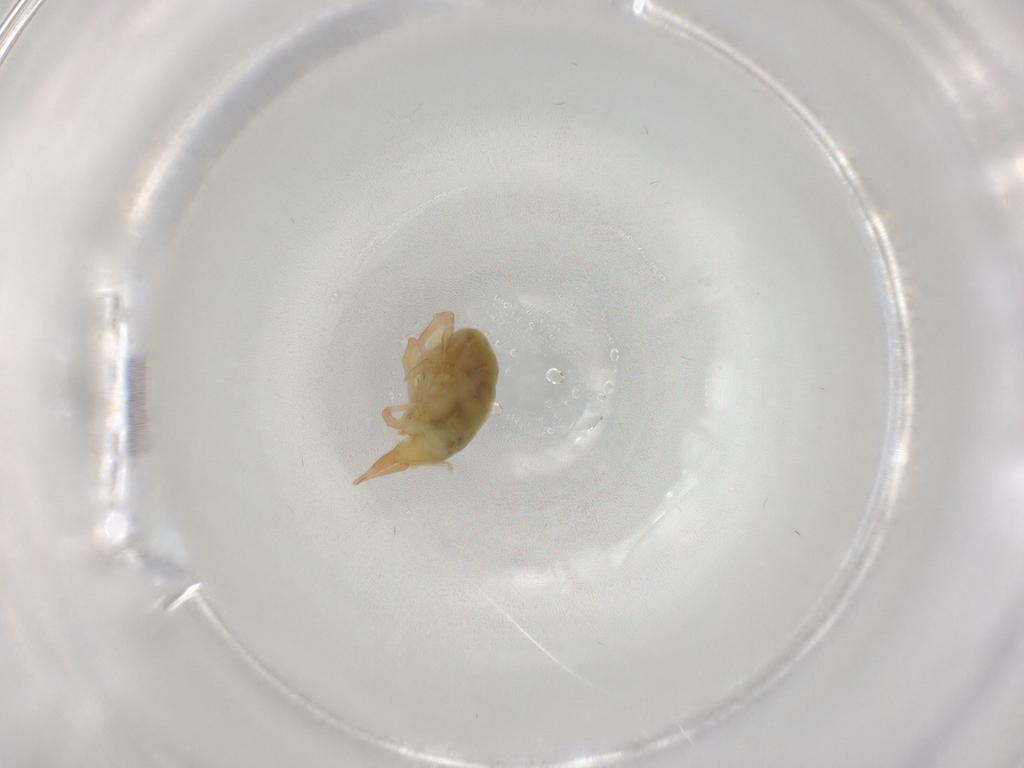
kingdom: Animalia
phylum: Arthropoda
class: Arachnida
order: Trombidiformes
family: Bdellidae
